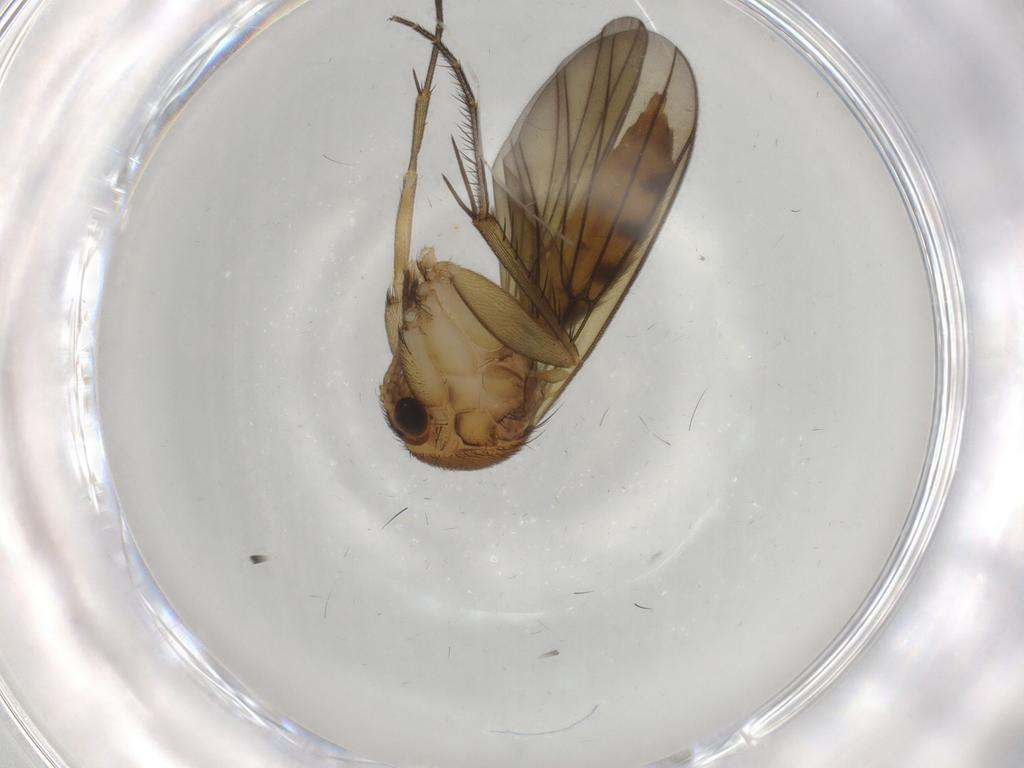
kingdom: Animalia
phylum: Arthropoda
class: Insecta
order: Diptera
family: Mycetophilidae
